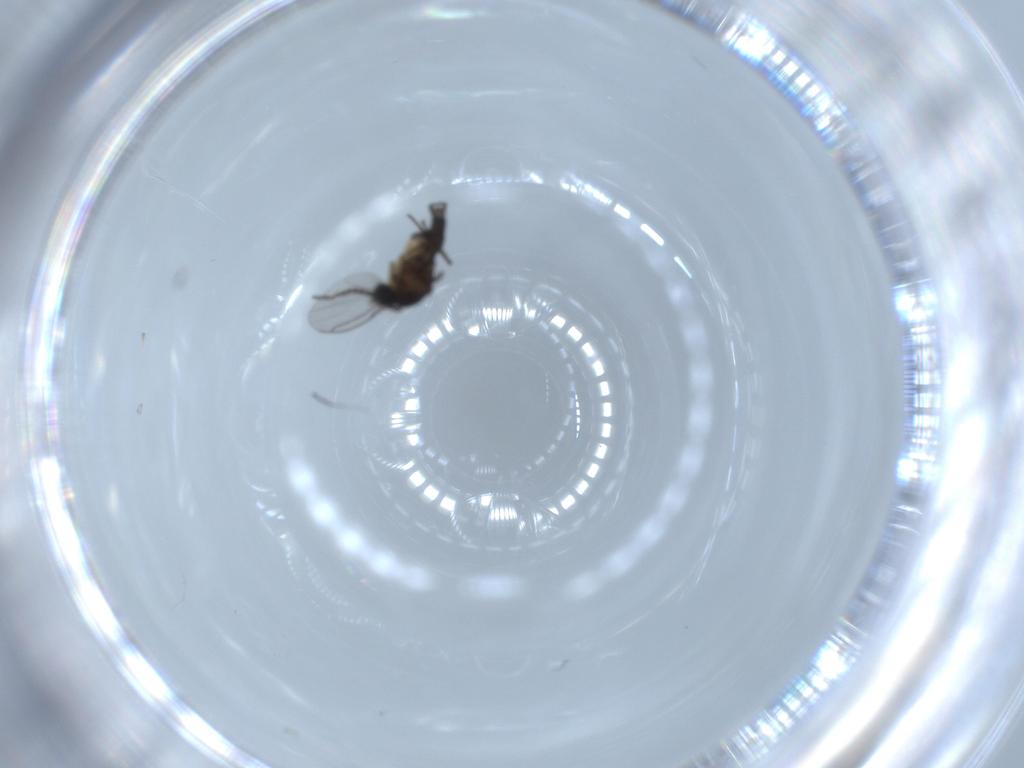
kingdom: Animalia
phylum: Arthropoda
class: Insecta
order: Diptera
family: Sciaridae
